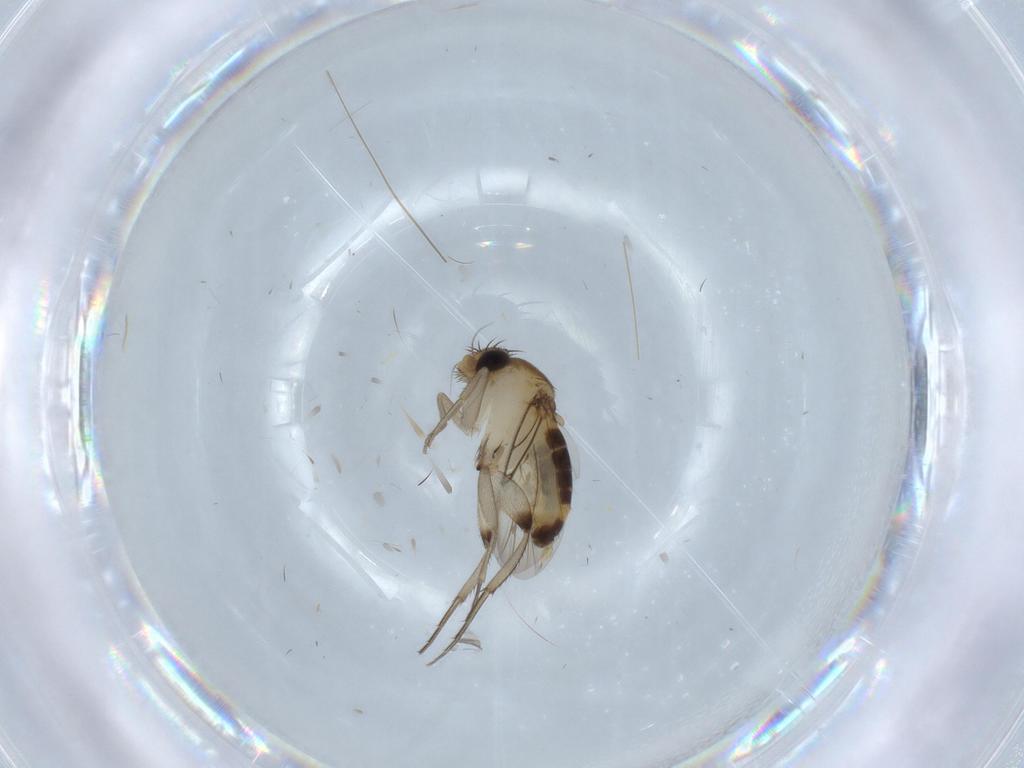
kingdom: Animalia
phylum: Arthropoda
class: Insecta
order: Diptera
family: Phoridae
